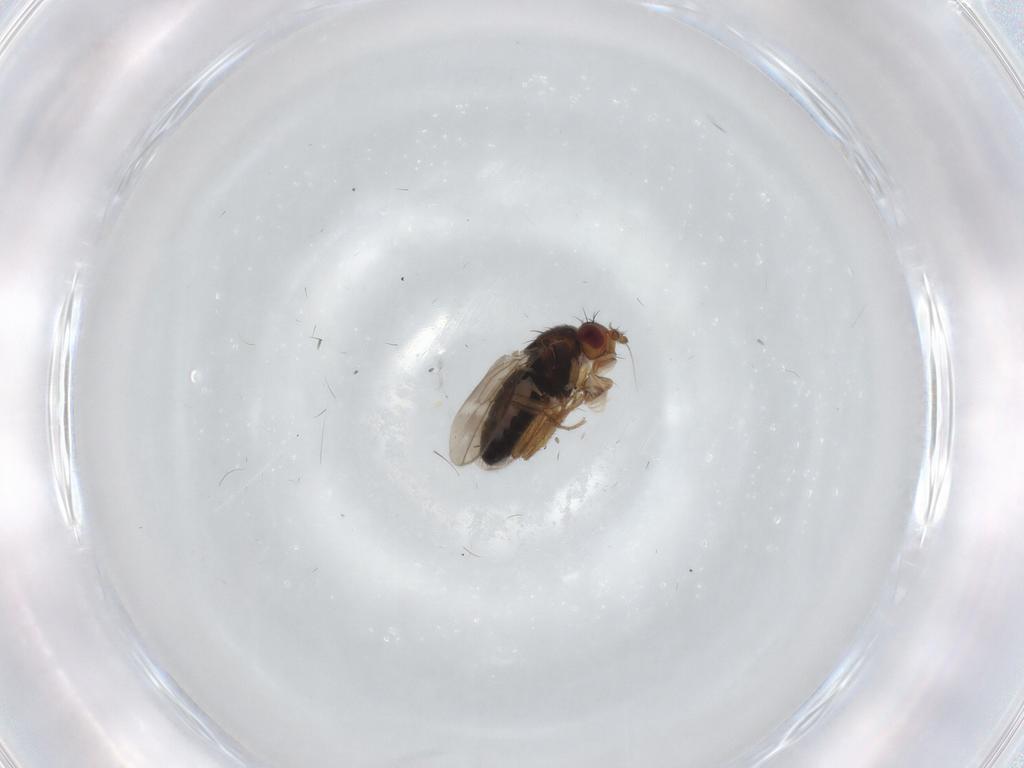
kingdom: Animalia
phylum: Arthropoda
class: Insecta
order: Diptera
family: Sphaeroceridae
